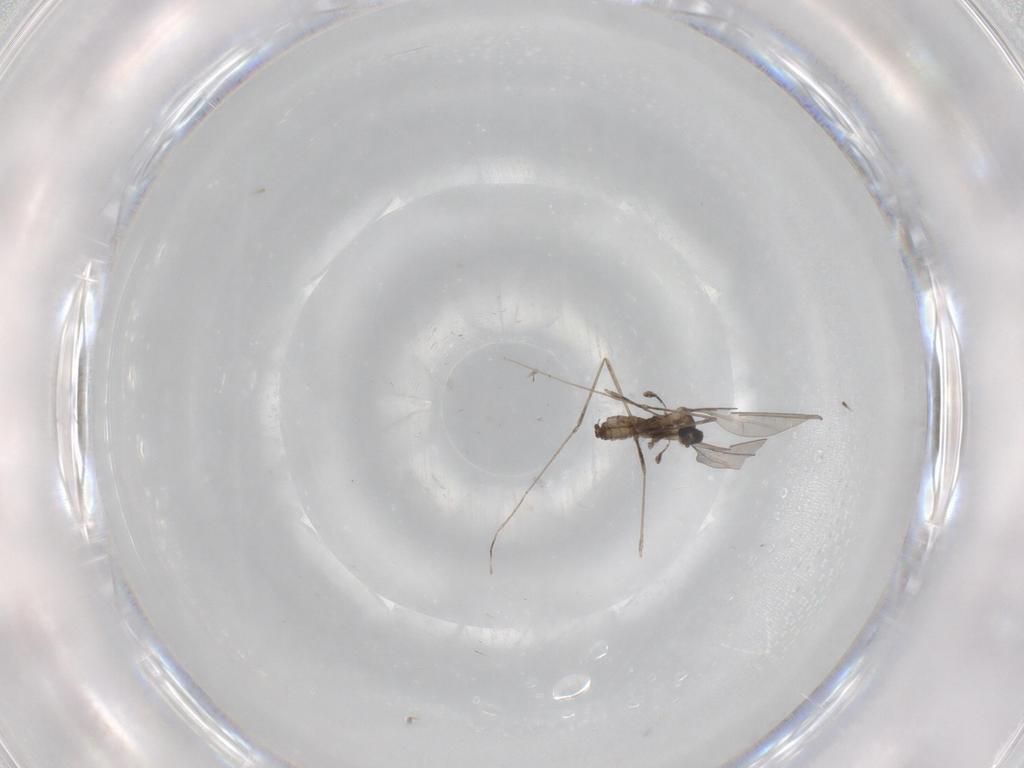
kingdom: Animalia
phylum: Arthropoda
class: Insecta
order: Diptera
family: Cecidomyiidae
